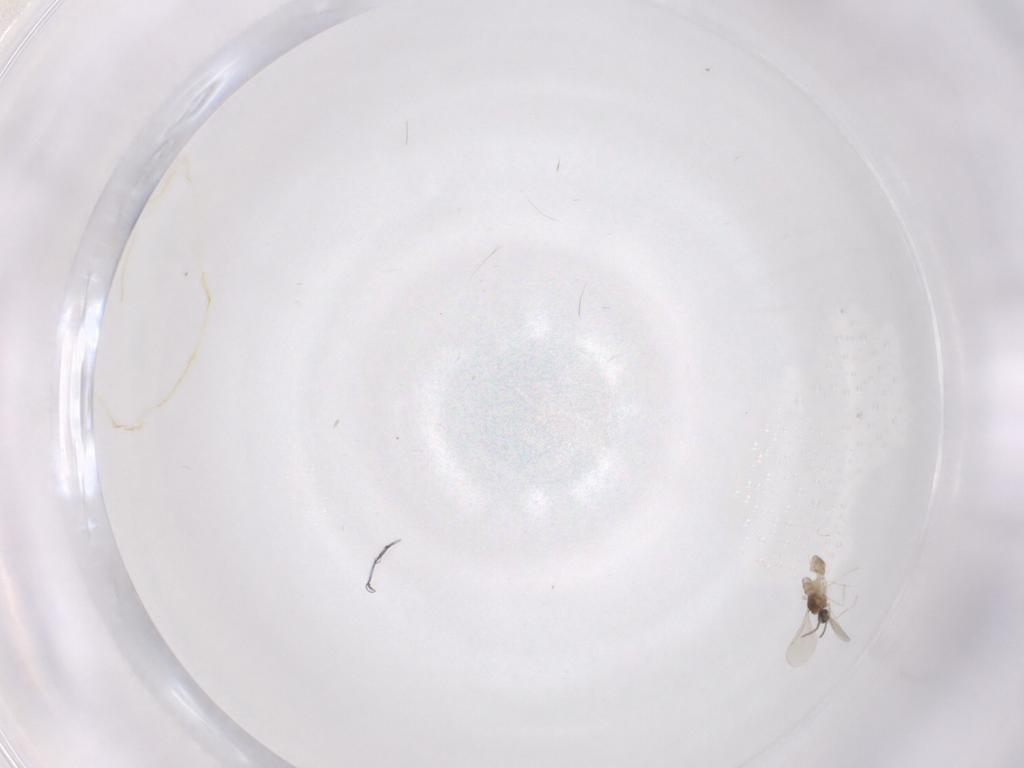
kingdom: Animalia
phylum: Arthropoda
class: Insecta
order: Diptera
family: Cecidomyiidae
